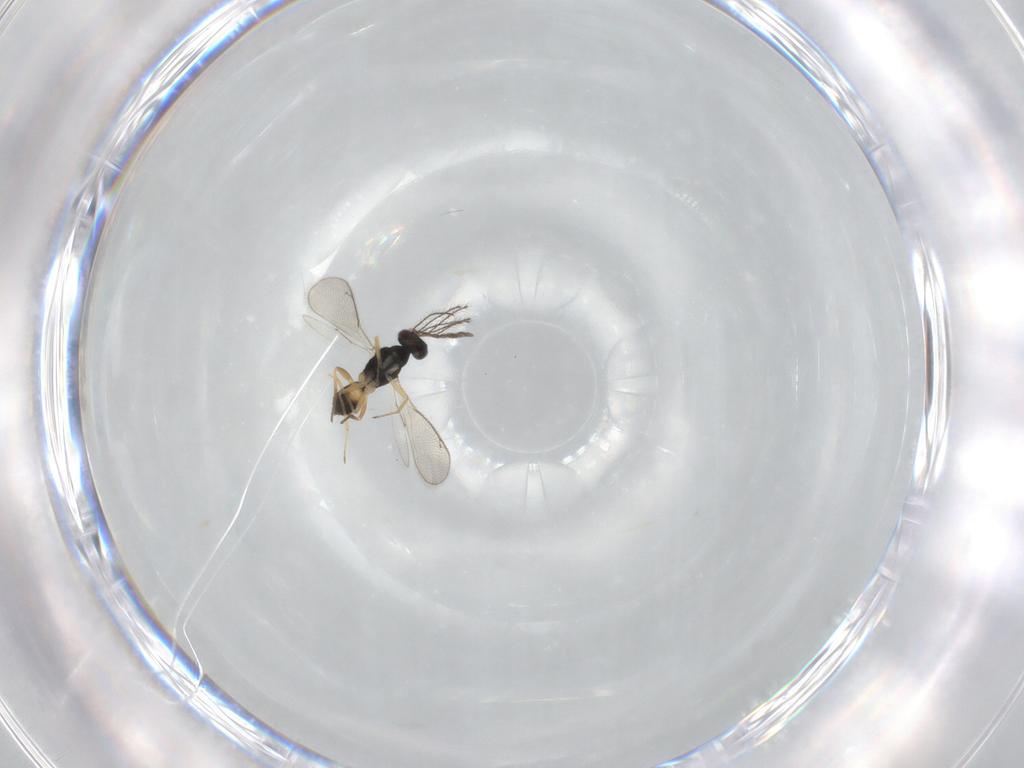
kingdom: Animalia
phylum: Arthropoda
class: Insecta
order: Hymenoptera
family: Eulophidae
